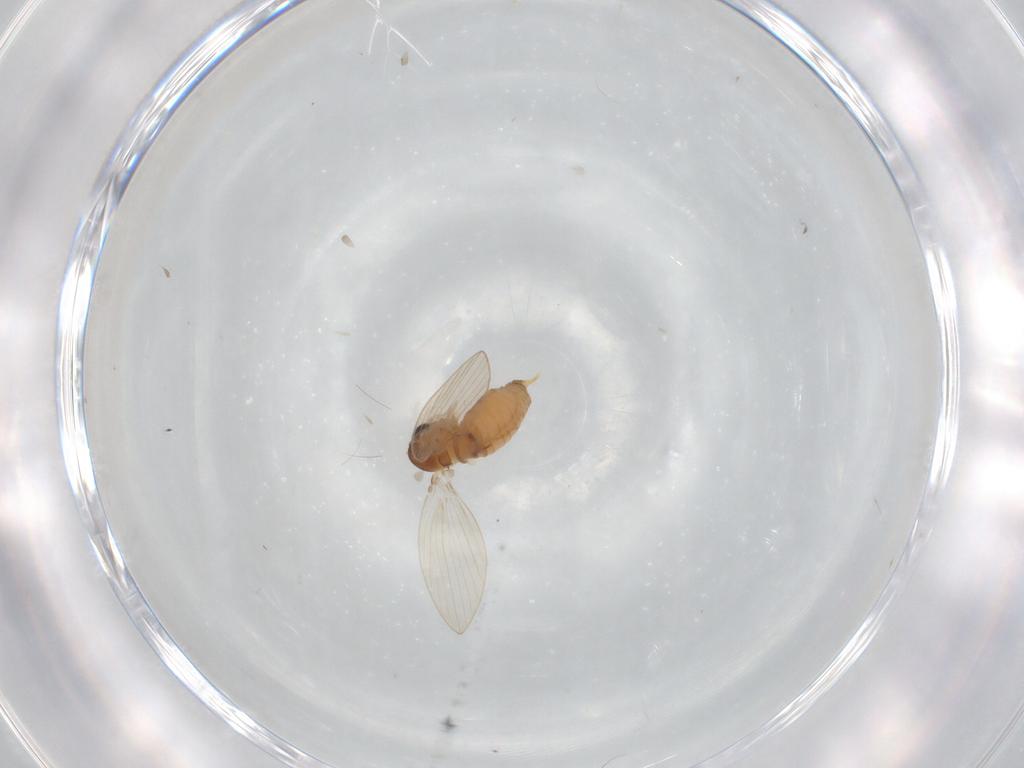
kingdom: Animalia
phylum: Arthropoda
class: Insecta
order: Diptera
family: Psychodidae
